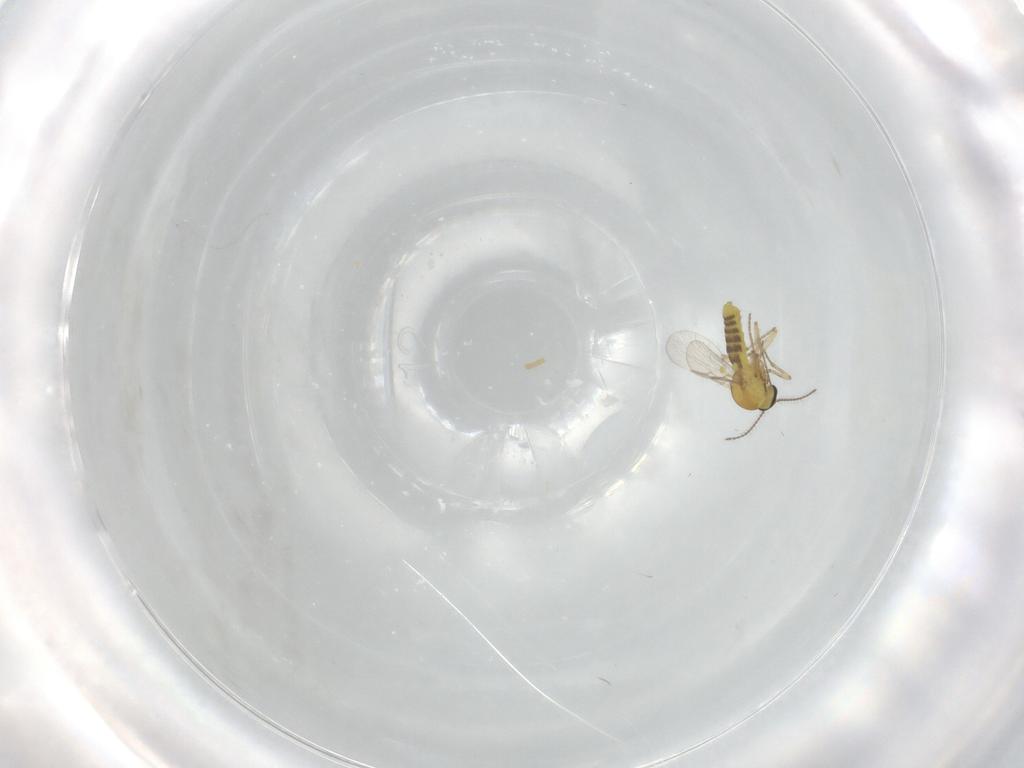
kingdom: Animalia
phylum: Arthropoda
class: Insecta
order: Diptera
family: Ceratopogonidae
